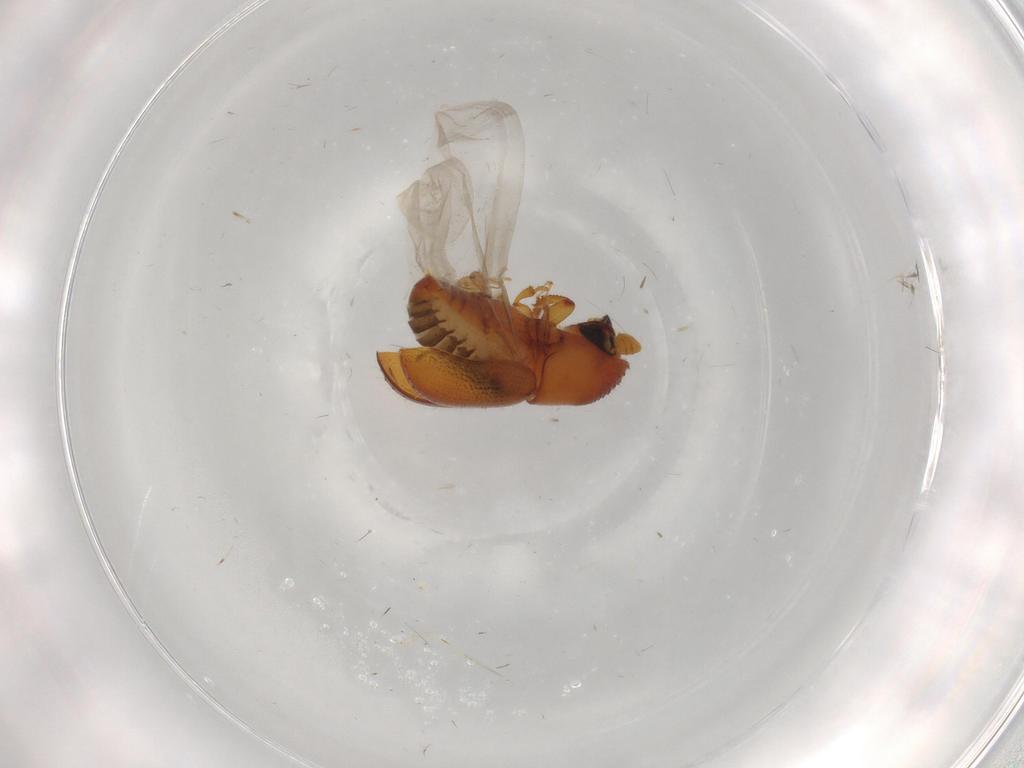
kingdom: Animalia
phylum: Arthropoda
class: Insecta
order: Coleoptera
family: Curculionidae
